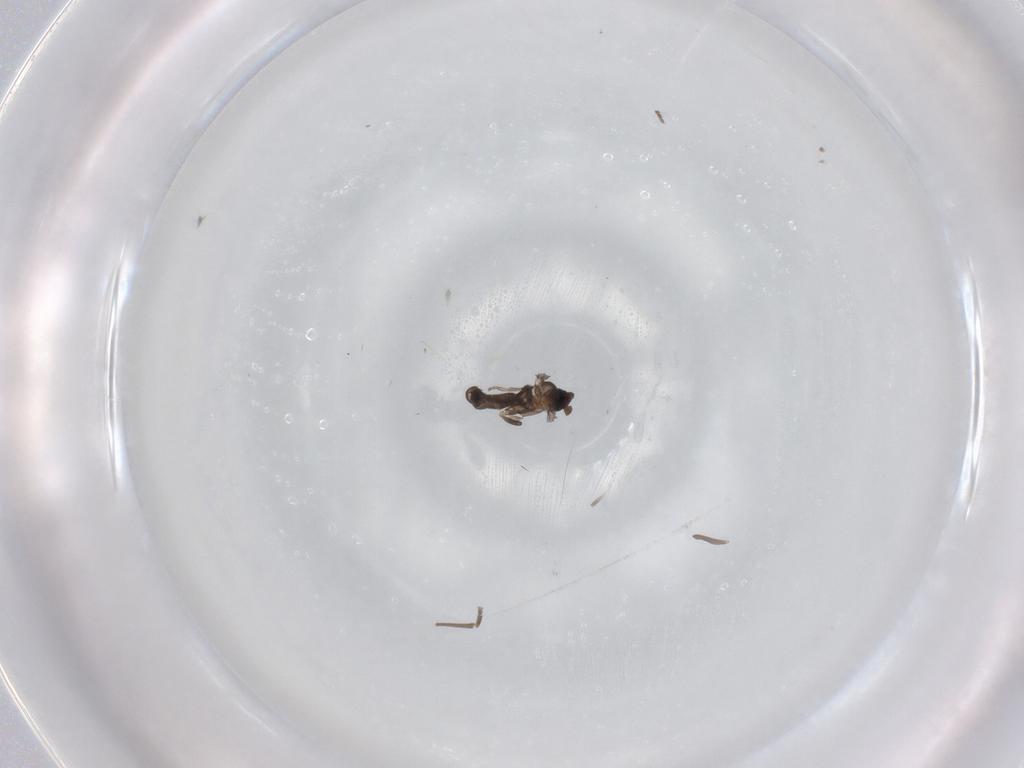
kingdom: Animalia
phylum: Arthropoda
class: Insecta
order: Diptera
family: Phoridae
